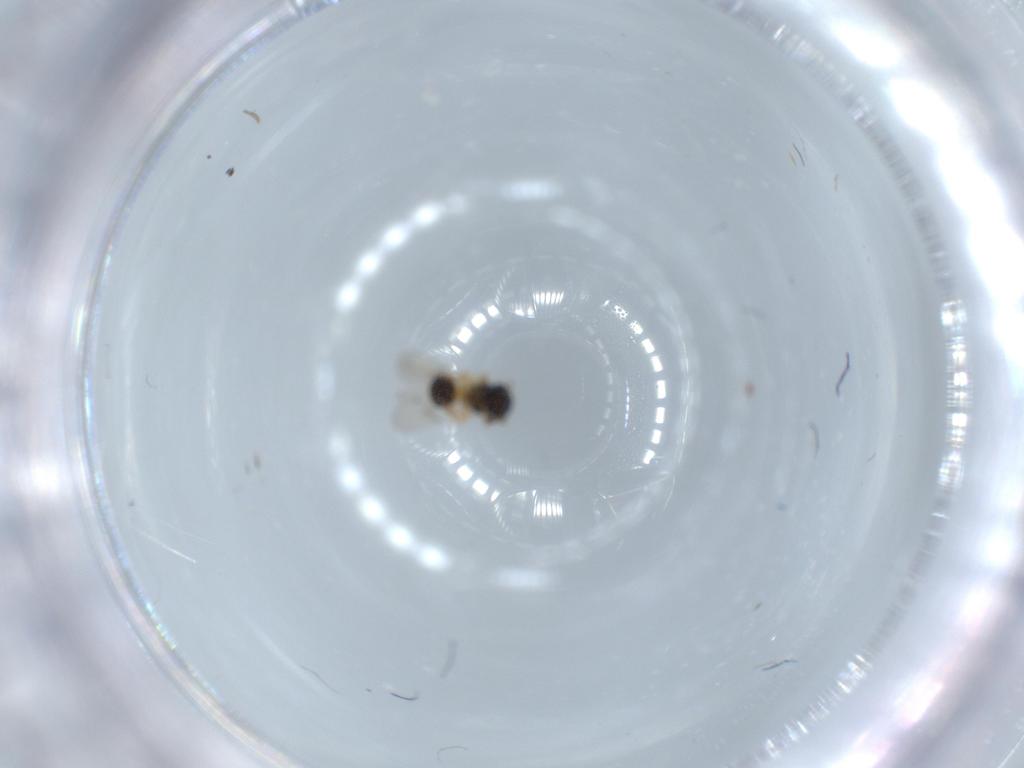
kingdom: Animalia
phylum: Arthropoda
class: Insecta
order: Hymenoptera
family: Scelionidae
